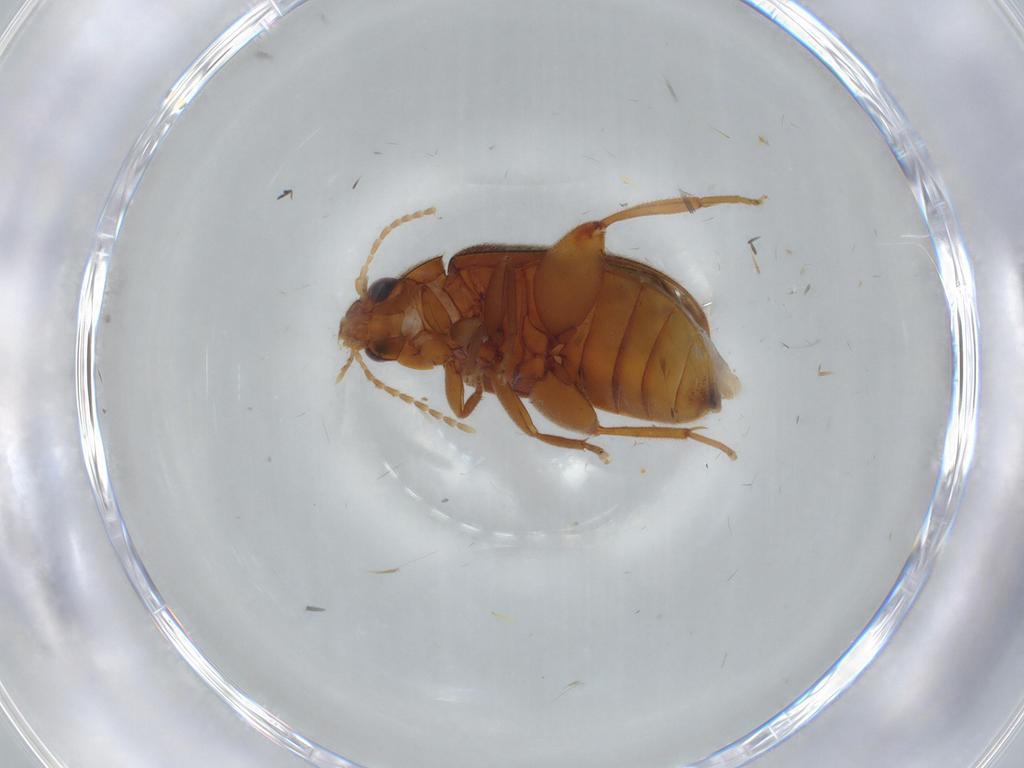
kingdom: Animalia
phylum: Arthropoda
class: Insecta
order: Coleoptera
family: Scirtidae
